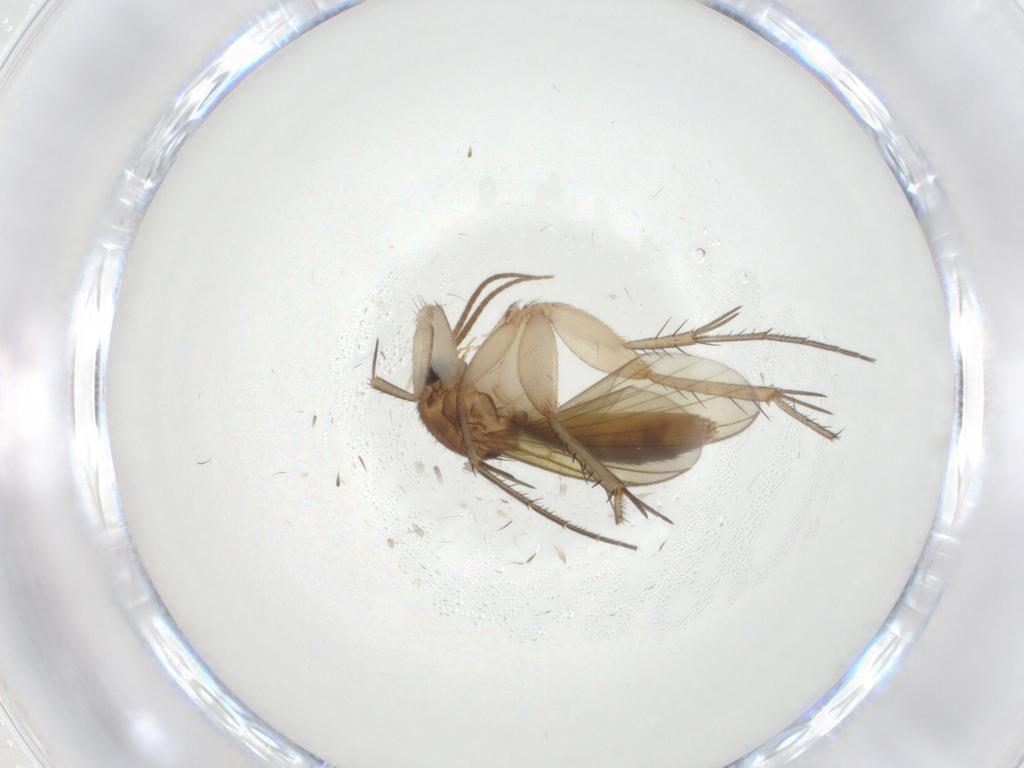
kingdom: Animalia
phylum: Arthropoda
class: Insecta
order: Diptera
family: Mycetophilidae
